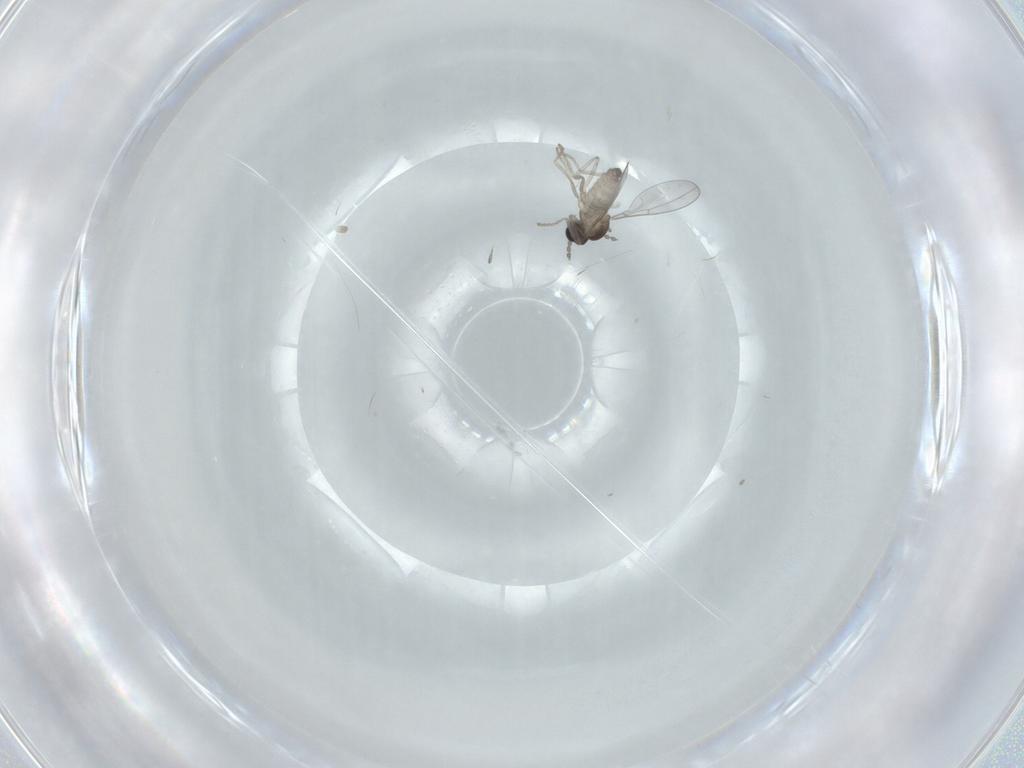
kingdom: Animalia
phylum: Arthropoda
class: Insecta
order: Diptera
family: Cecidomyiidae
